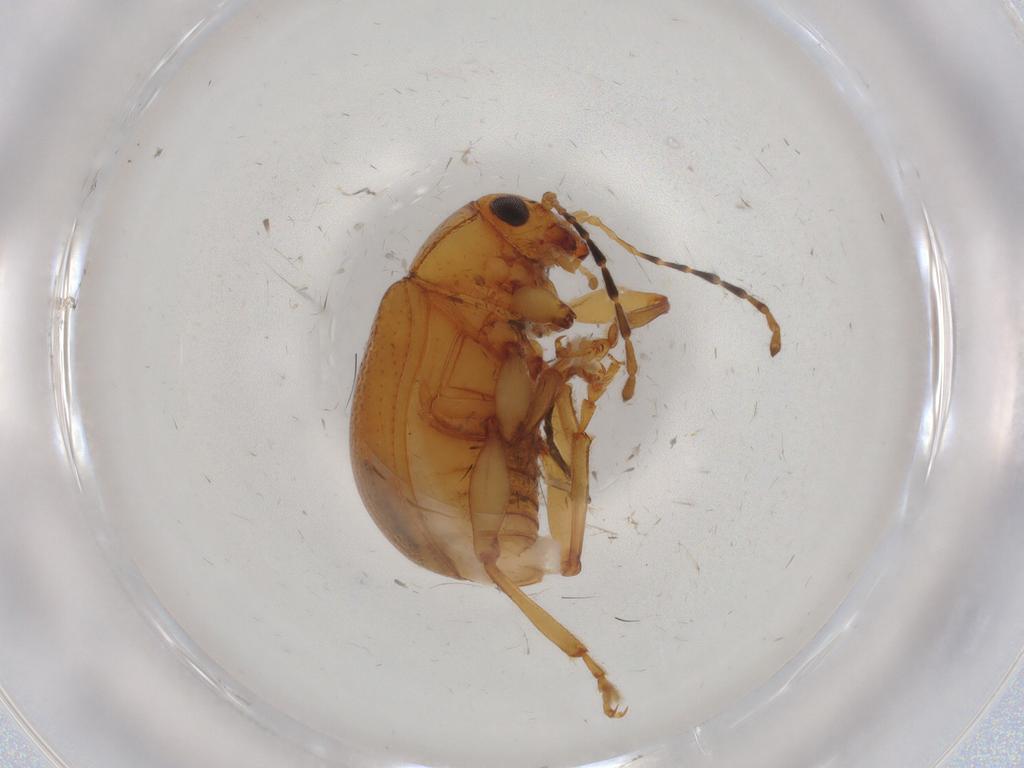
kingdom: Animalia
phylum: Arthropoda
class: Insecta
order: Coleoptera
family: Chrysomelidae
